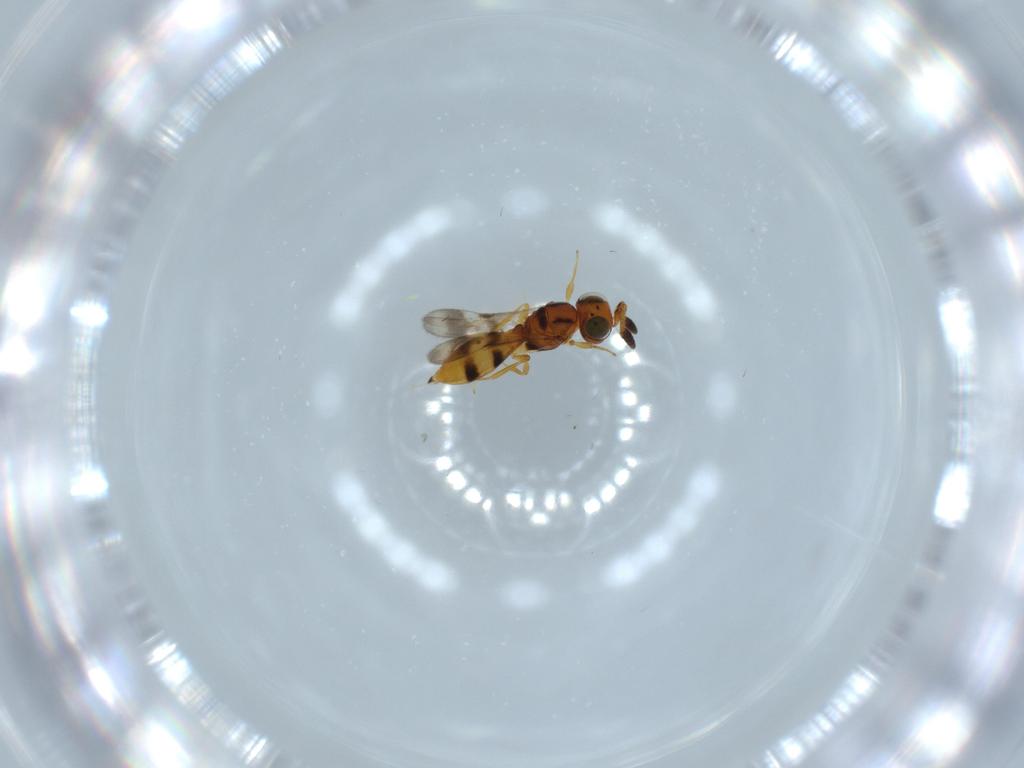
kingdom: Animalia
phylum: Arthropoda
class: Insecta
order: Hymenoptera
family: Scelionidae
